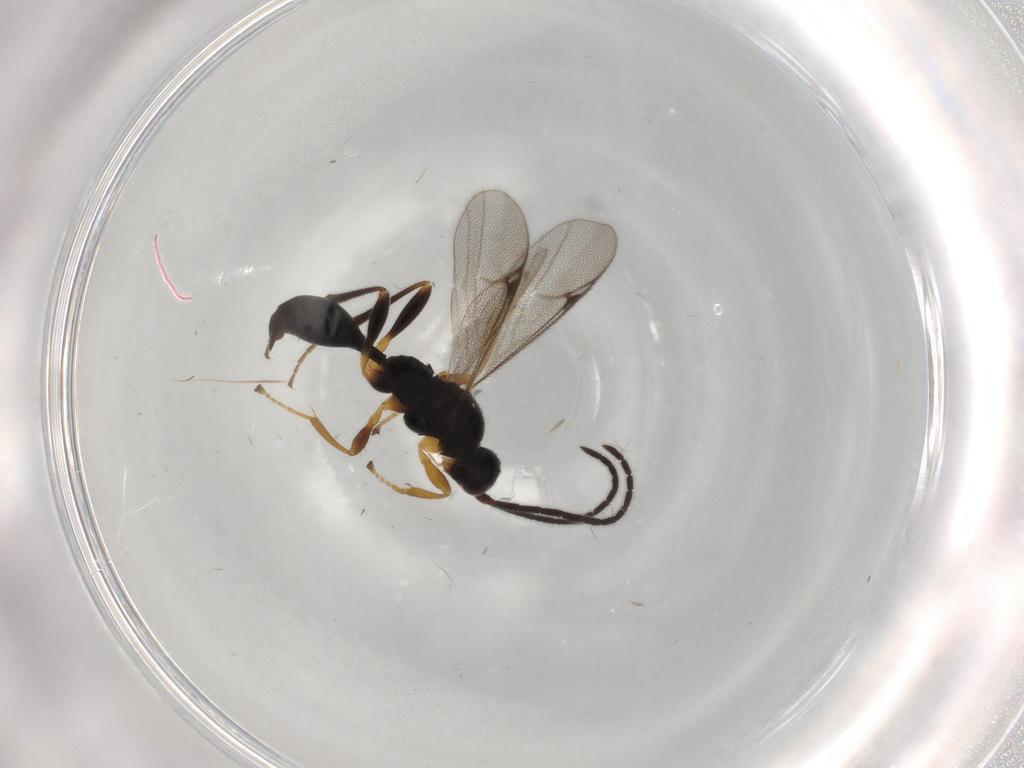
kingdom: Animalia
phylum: Arthropoda
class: Insecta
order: Hymenoptera
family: Proctotrupidae
